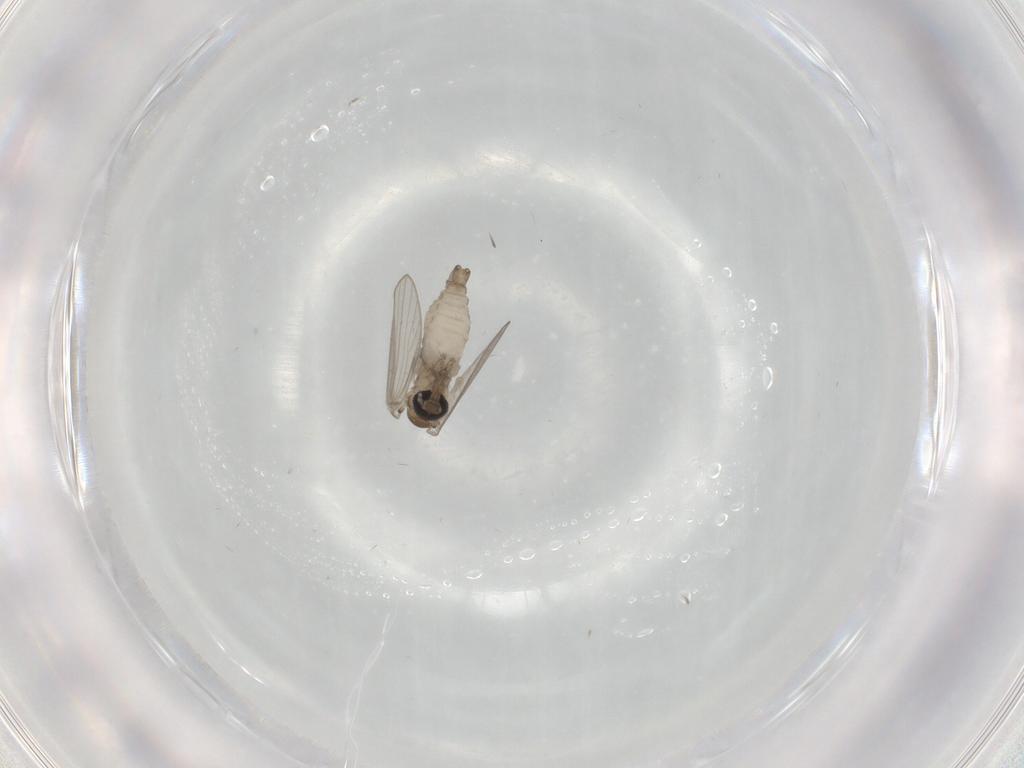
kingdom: Animalia
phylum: Arthropoda
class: Insecta
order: Diptera
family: Psychodidae
